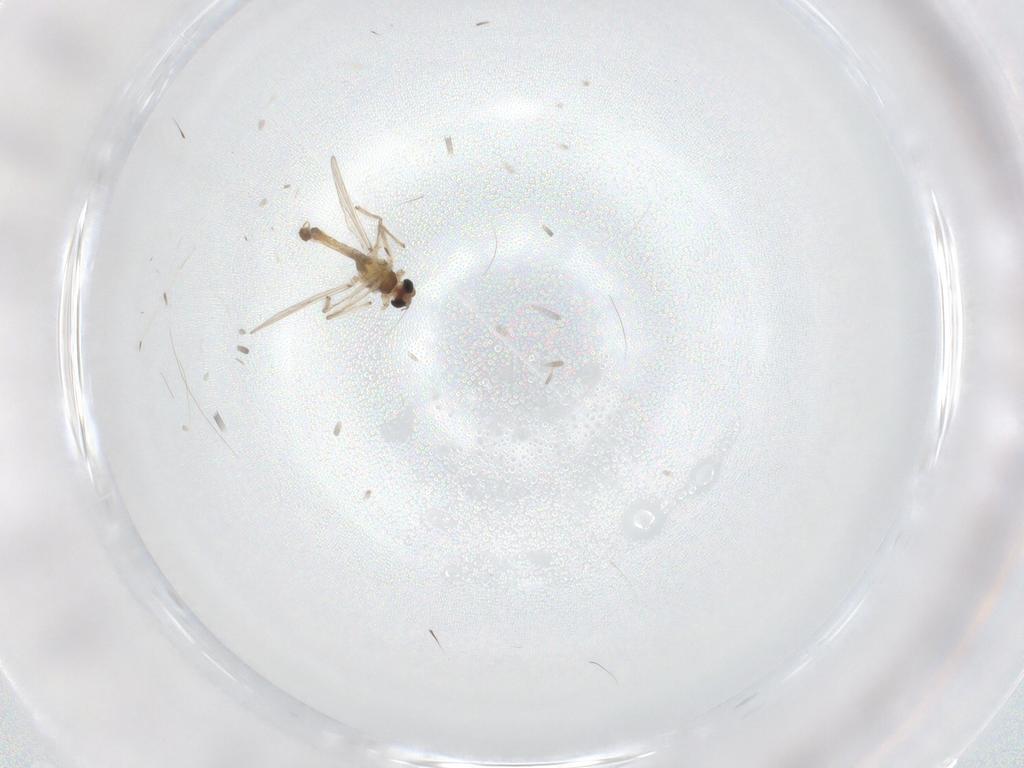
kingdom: Animalia
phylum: Arthropoda
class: Insecta
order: Diptera
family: Chironomidae
